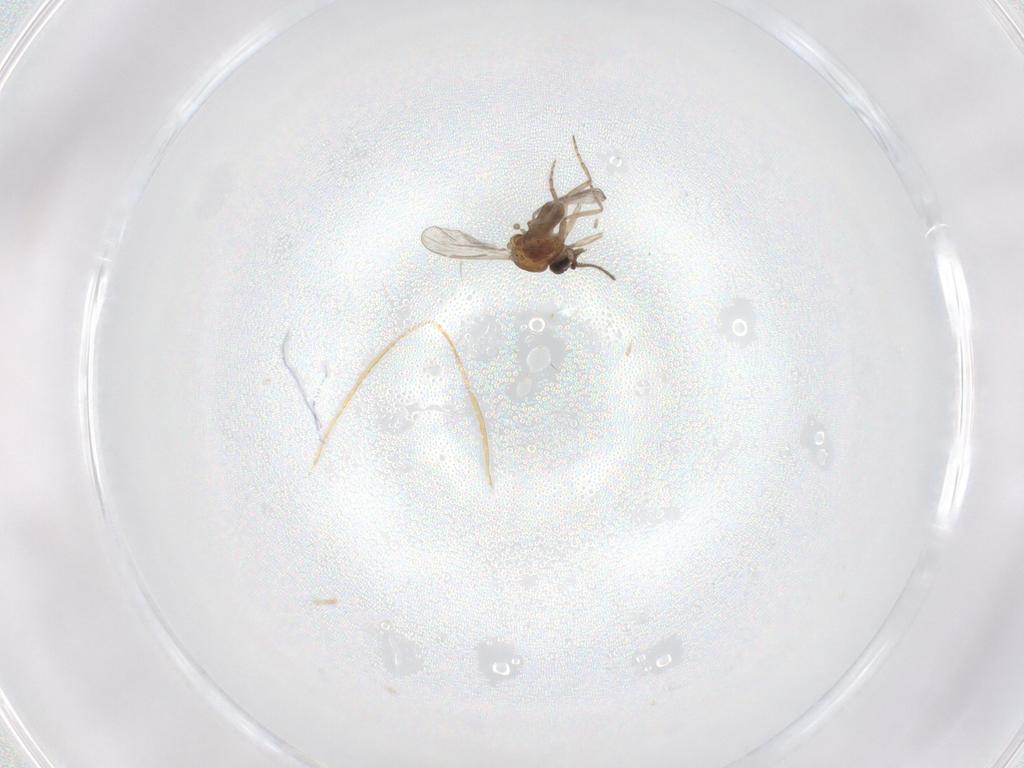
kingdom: Animalia
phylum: Arthropoda
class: Insecta
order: Diptera
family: Chironomidae
